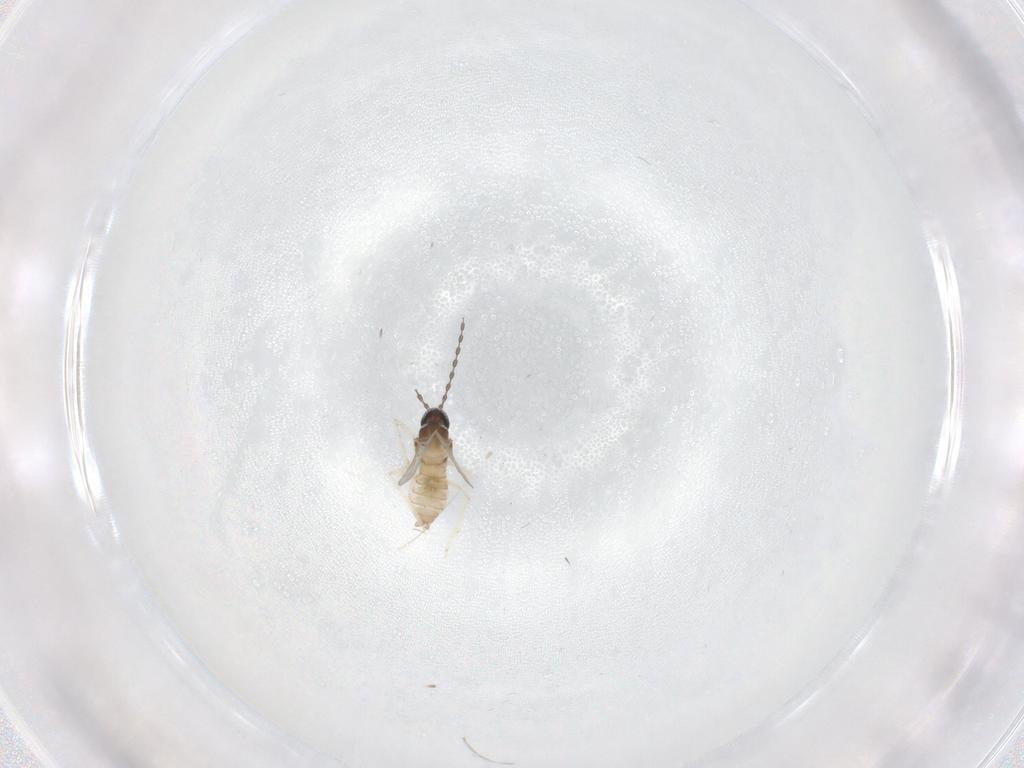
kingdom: Animalia
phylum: Arthropoda
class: Insecta
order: Diptera
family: Cecidomyiidae
